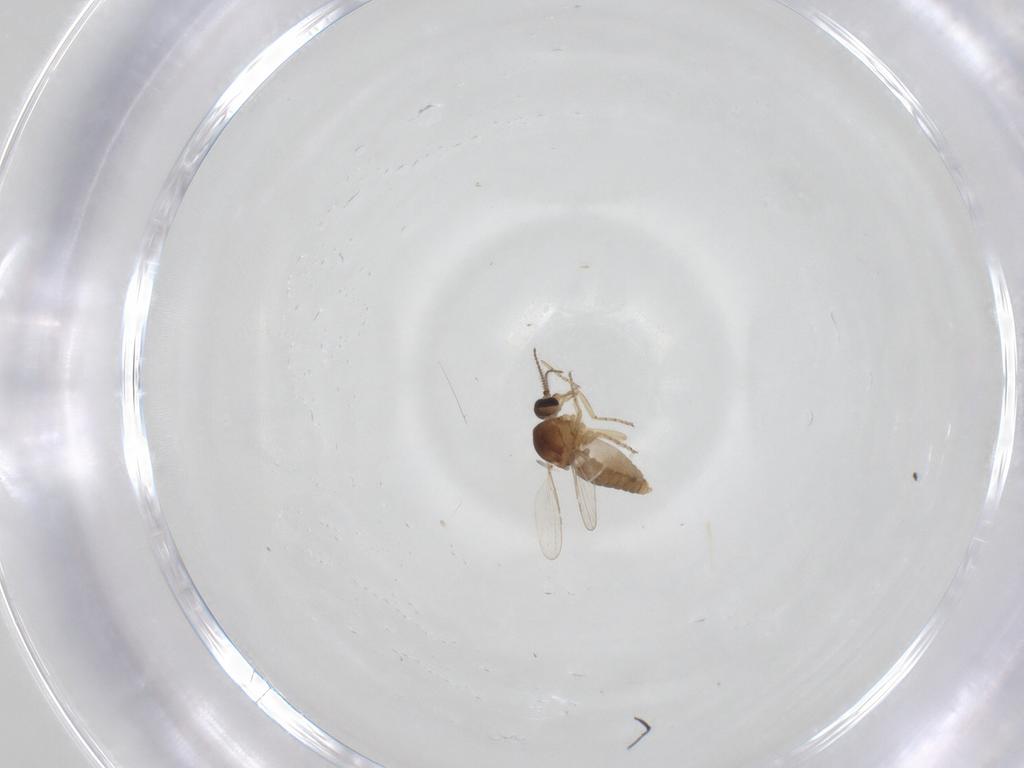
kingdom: Animalia
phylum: Arthropoda
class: Insecta
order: Diptera
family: Ceratopogonidae
